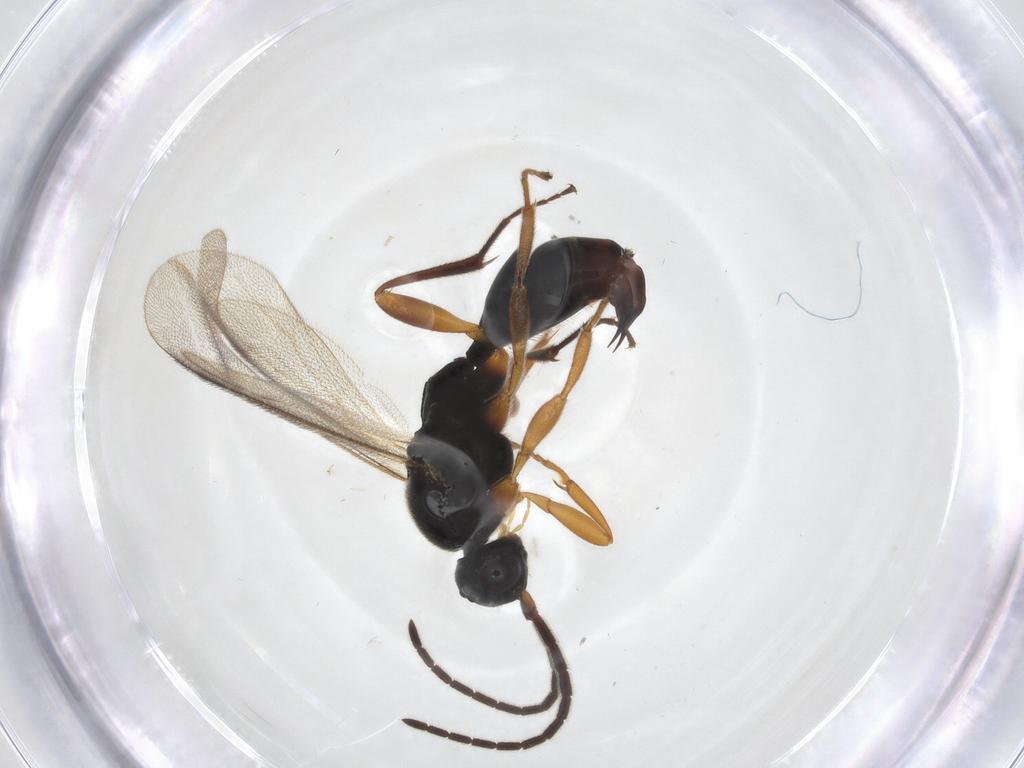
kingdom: Animalia
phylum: Arthropoda
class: Insecta
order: Hymenoptera
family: Proctotrupidae
